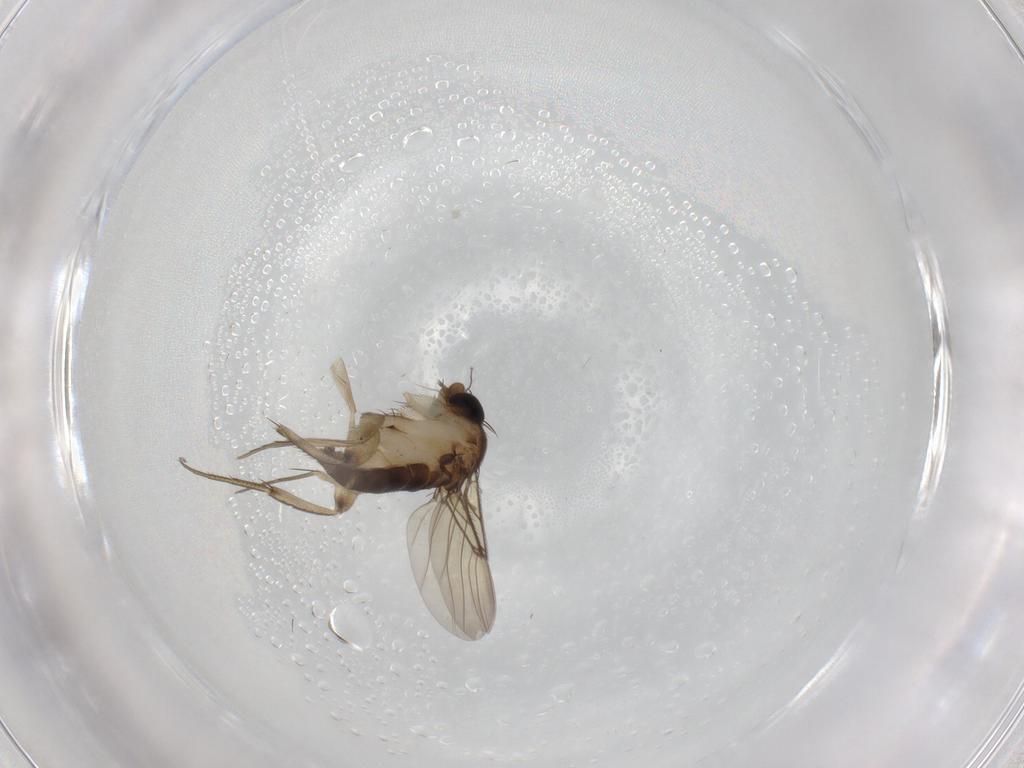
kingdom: Animalia
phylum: Arthropoda
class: Insecta
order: Diptera
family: Phoridae
